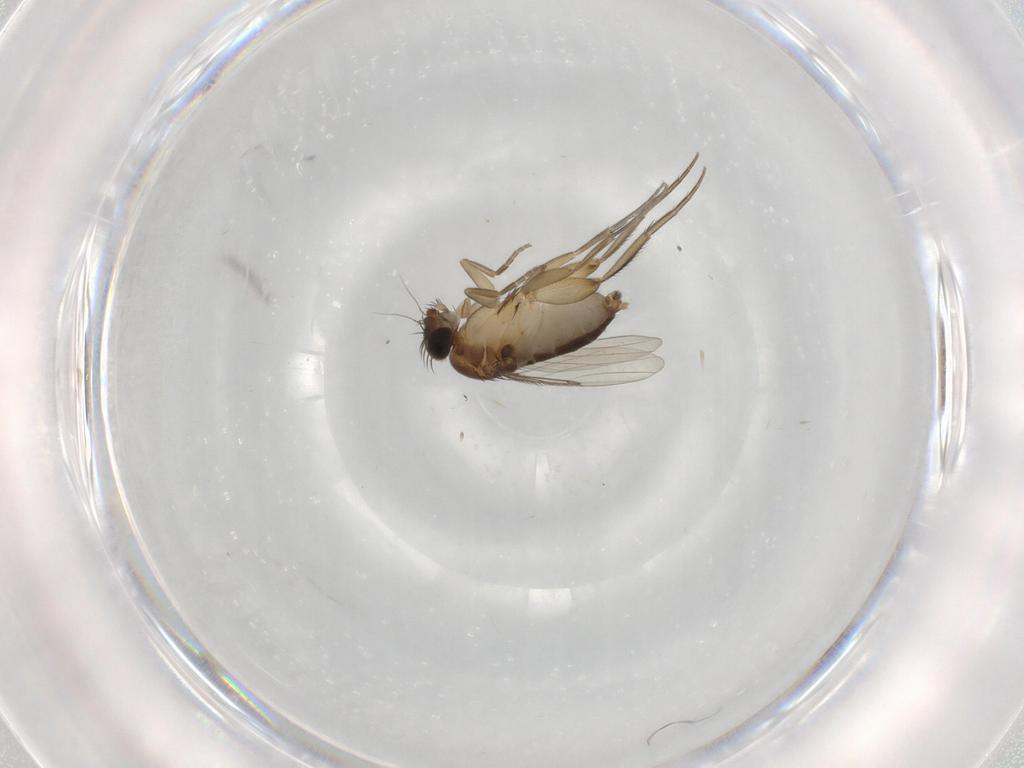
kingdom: Animalia
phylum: Arthropoda
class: Insecta
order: Diptera
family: Phoridae
